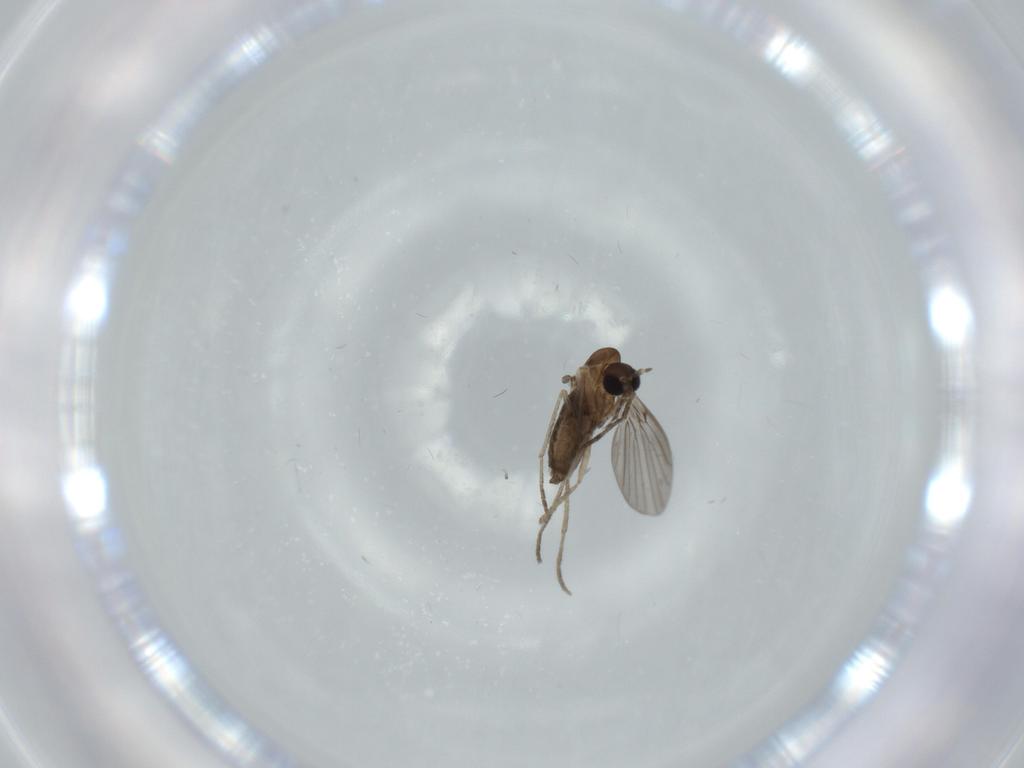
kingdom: Animalia
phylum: Arthropoda
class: Insecta
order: Diptera
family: Psychodidae
